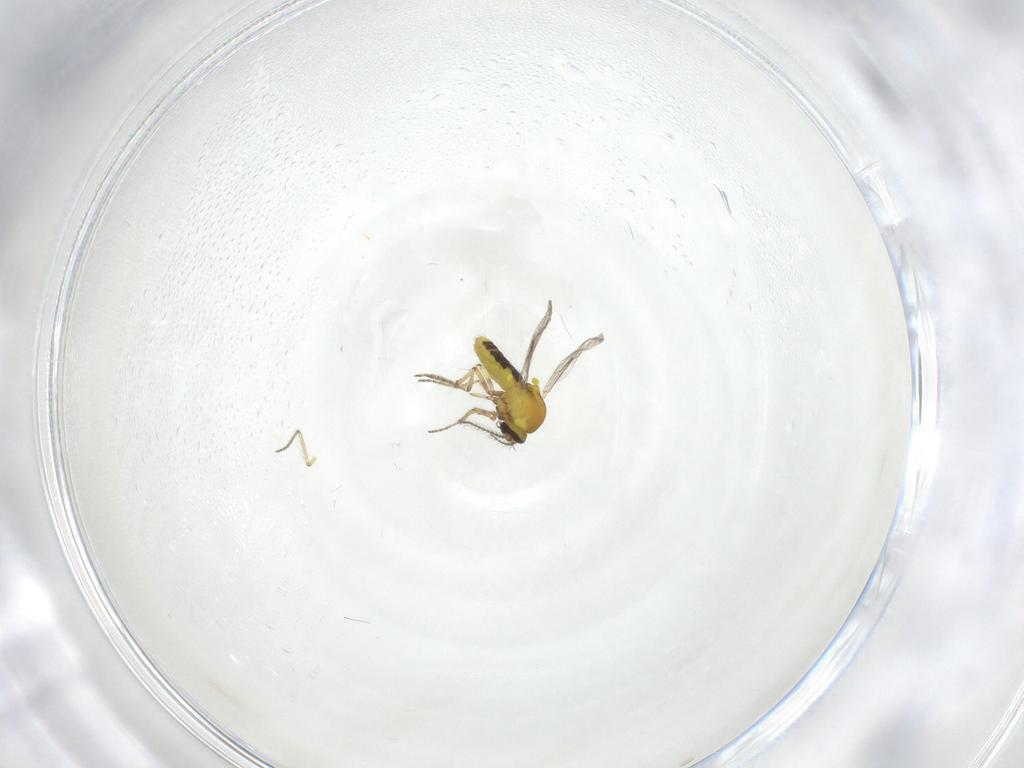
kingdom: Animalia
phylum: Arthropoda
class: Insecta
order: Diptera
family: Ceratopogonidae
